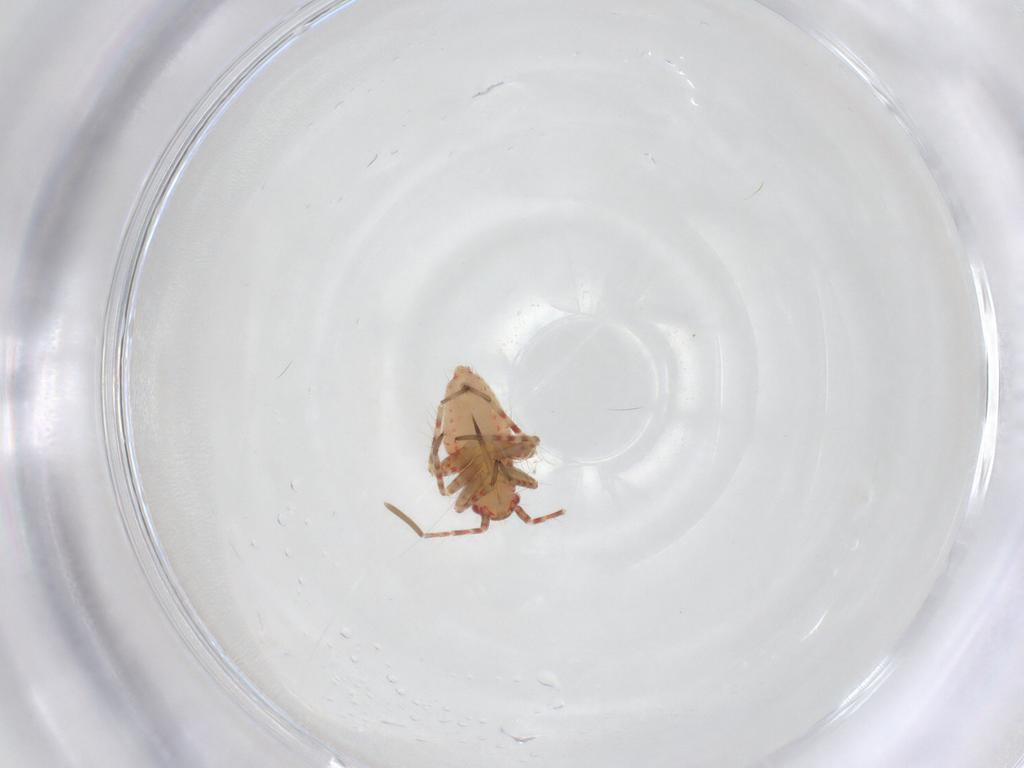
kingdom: Animalia
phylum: Arthropoda
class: Insecta
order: Hemiptera
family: Miridae
